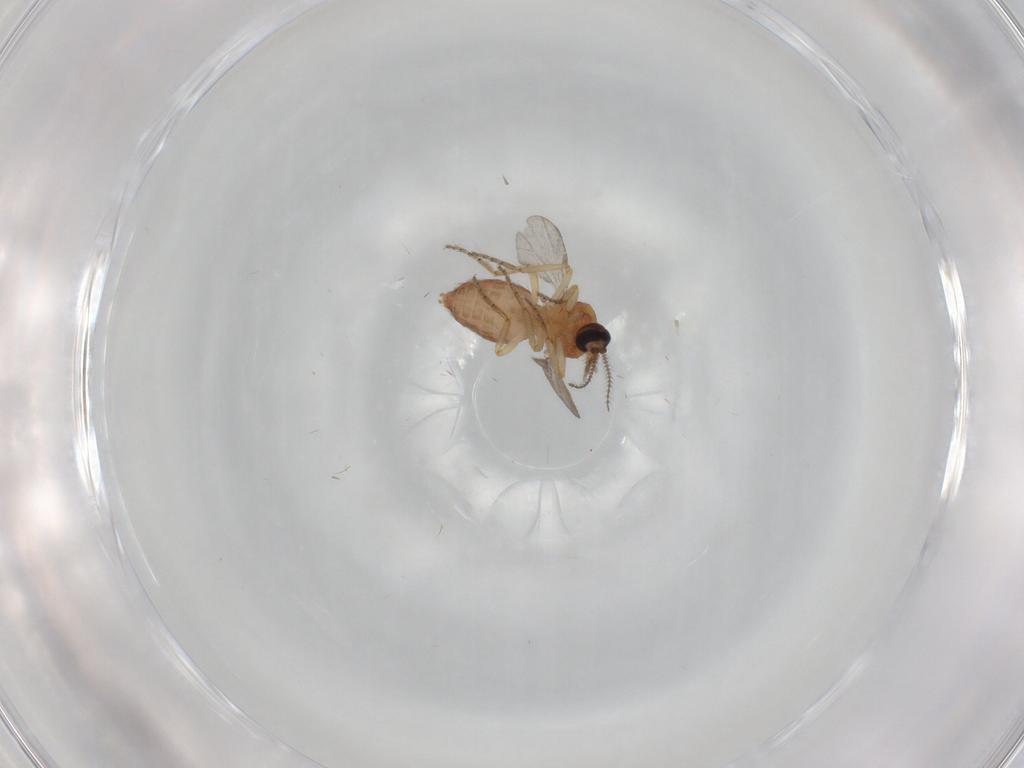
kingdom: Animalia
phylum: Arthropoda
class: Insecta
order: Diptera
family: Ceratopogonidae
